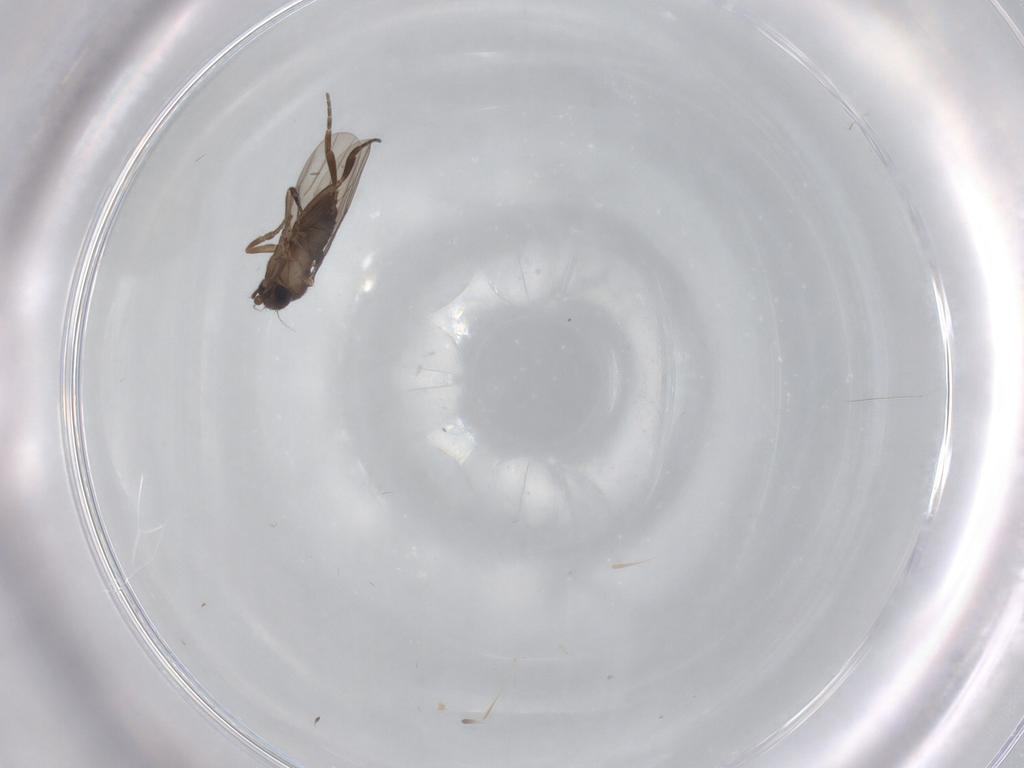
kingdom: Animalia
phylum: Arthropoda
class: Insecta
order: Diptera
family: Cecidomyiidae
